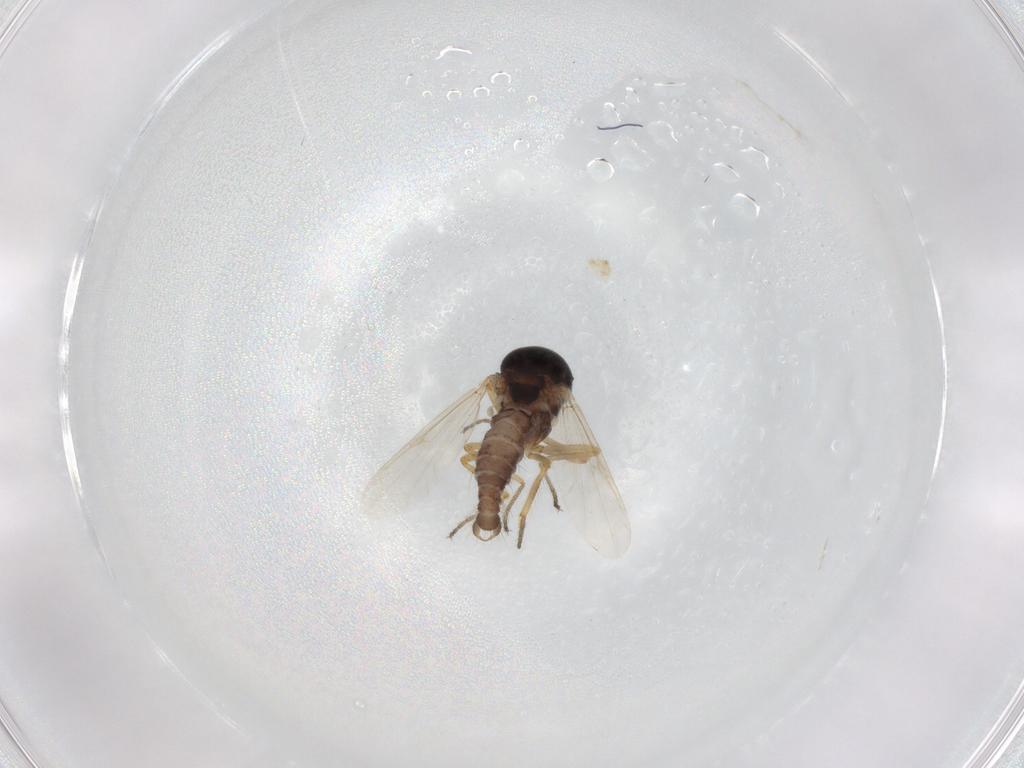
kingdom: Animalia
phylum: Arthropoda
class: Insecta
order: Diptera
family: Ceratopogonidae
